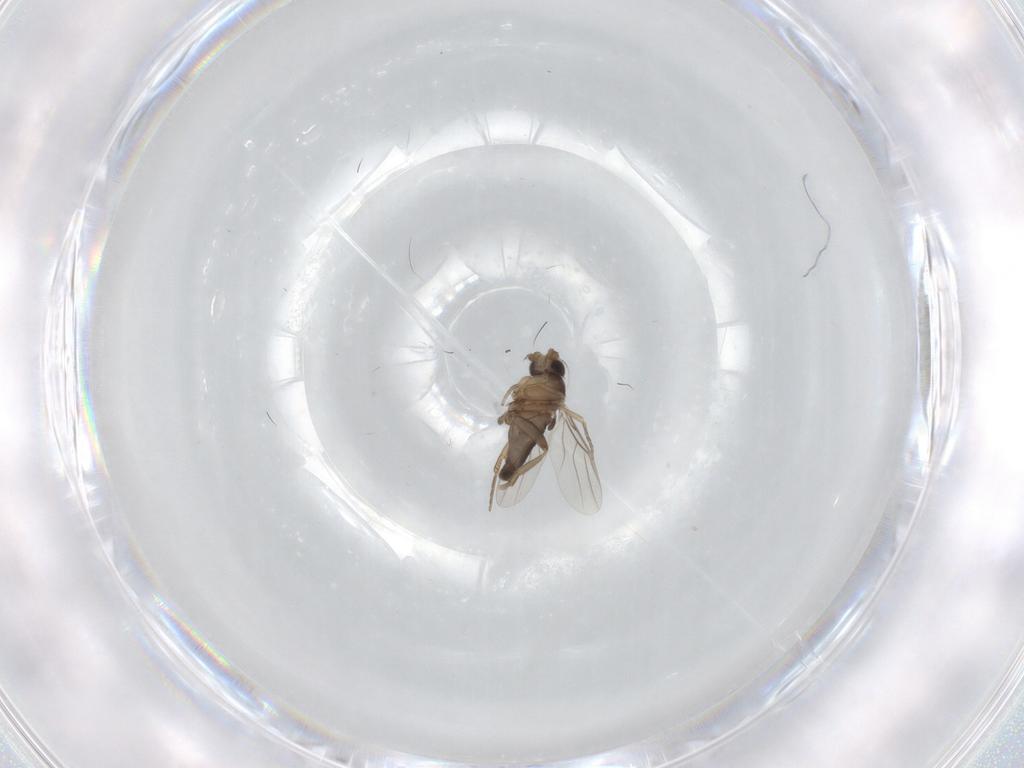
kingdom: Animalia
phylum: Arthropoda
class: Insecta
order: Diptera
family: Phoridae
